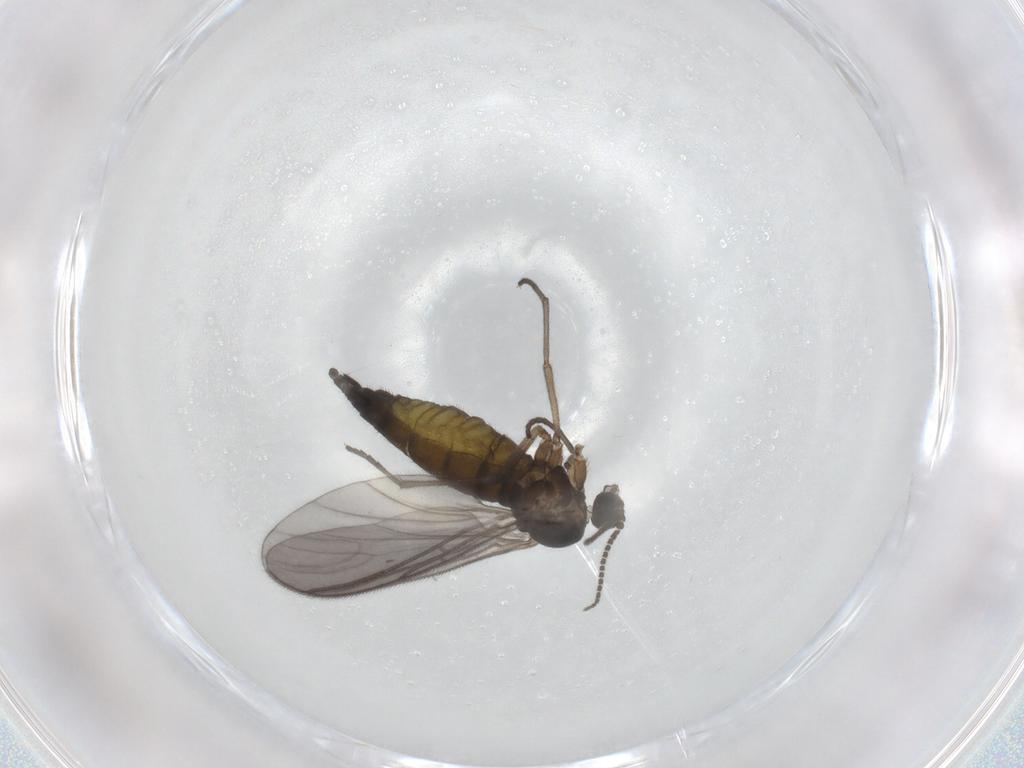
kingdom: Animalia
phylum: Arthropoda
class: Insecta
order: Diptera
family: Sciaridae
